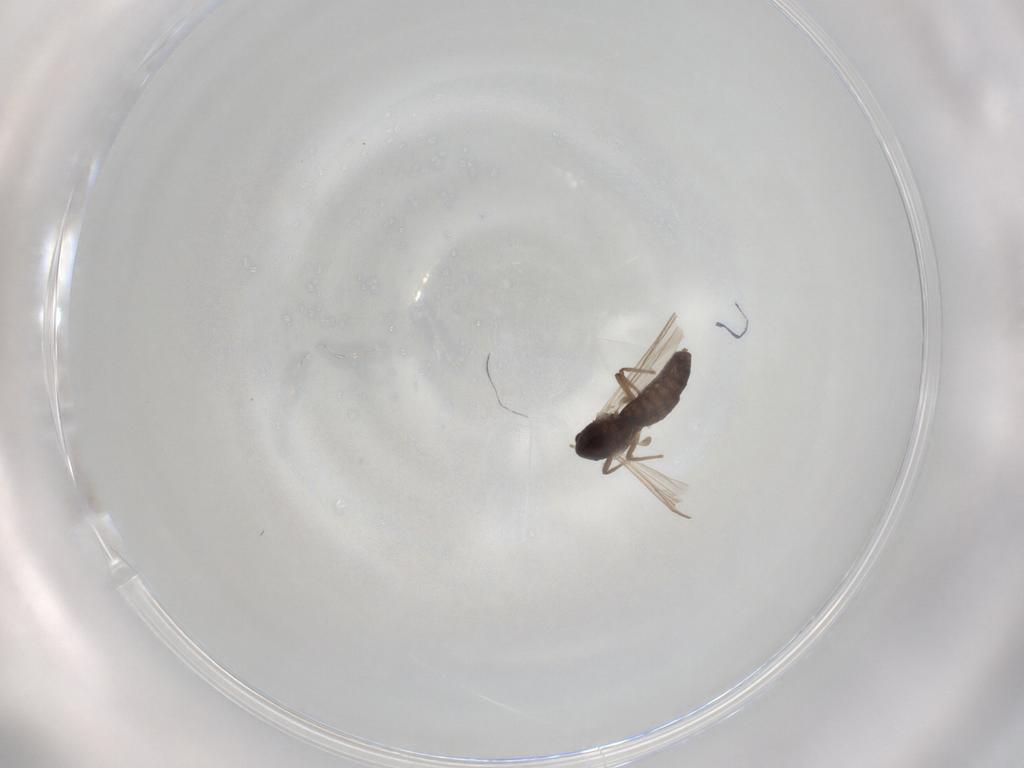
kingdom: Animalia
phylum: Arthropoda
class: Insecta
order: Diptera
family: Chironomidae
